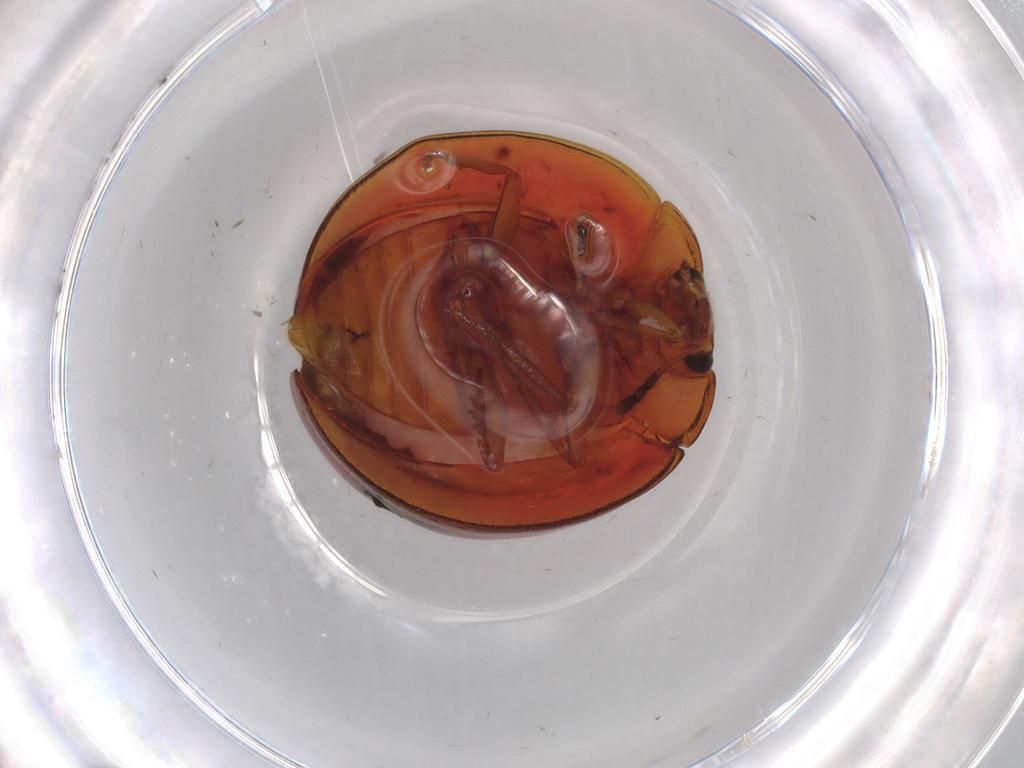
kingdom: Animalia
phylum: Arthropoda
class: Insecta
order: Coleoptera
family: Anamorphidae
